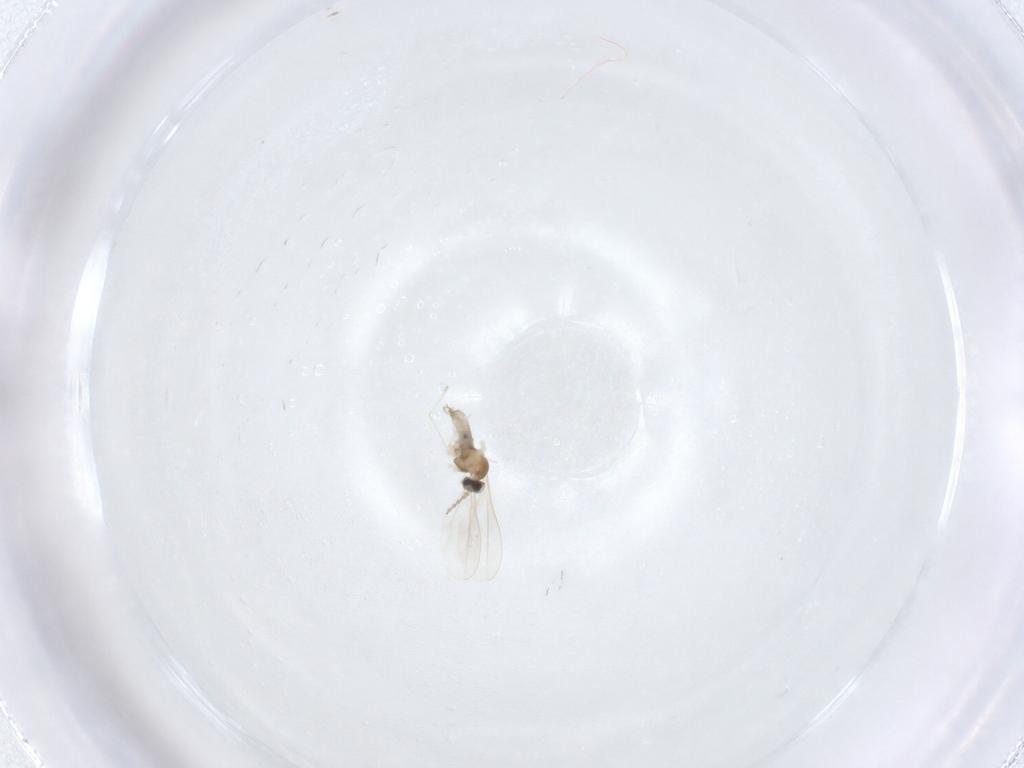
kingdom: Animalia
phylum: Arthropoda
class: Insecta
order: Diptera
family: Cecidomyiidae
